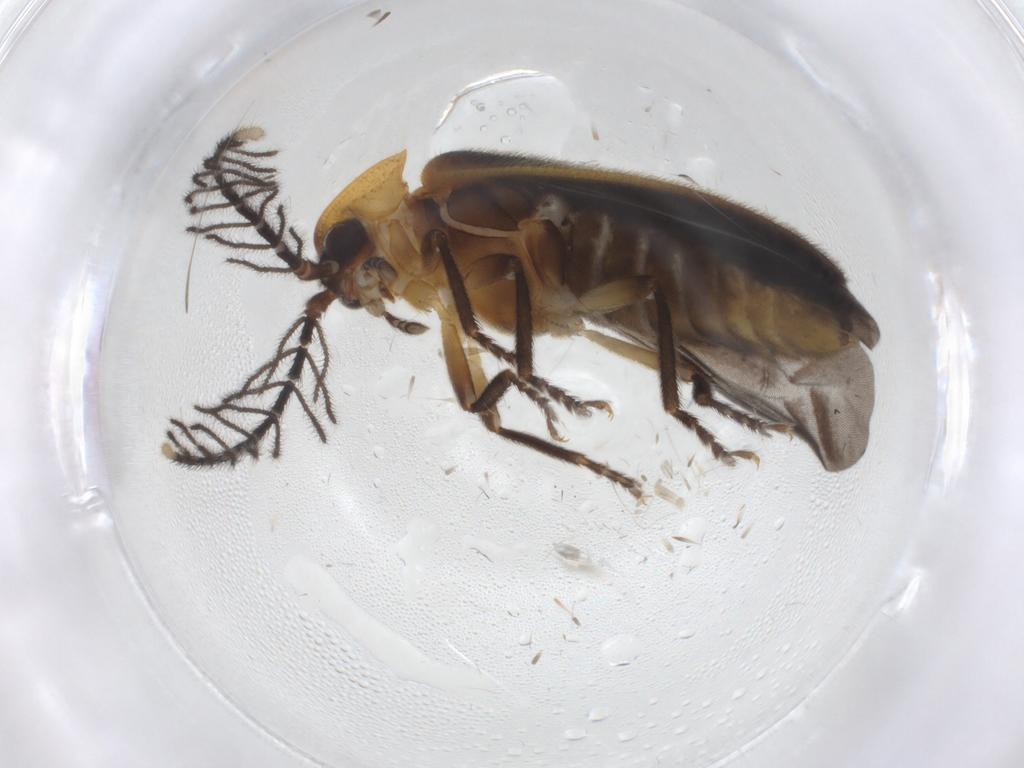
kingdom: Animalia
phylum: Arthropoda
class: Insecta
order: Coleoptera
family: Lampyridae
